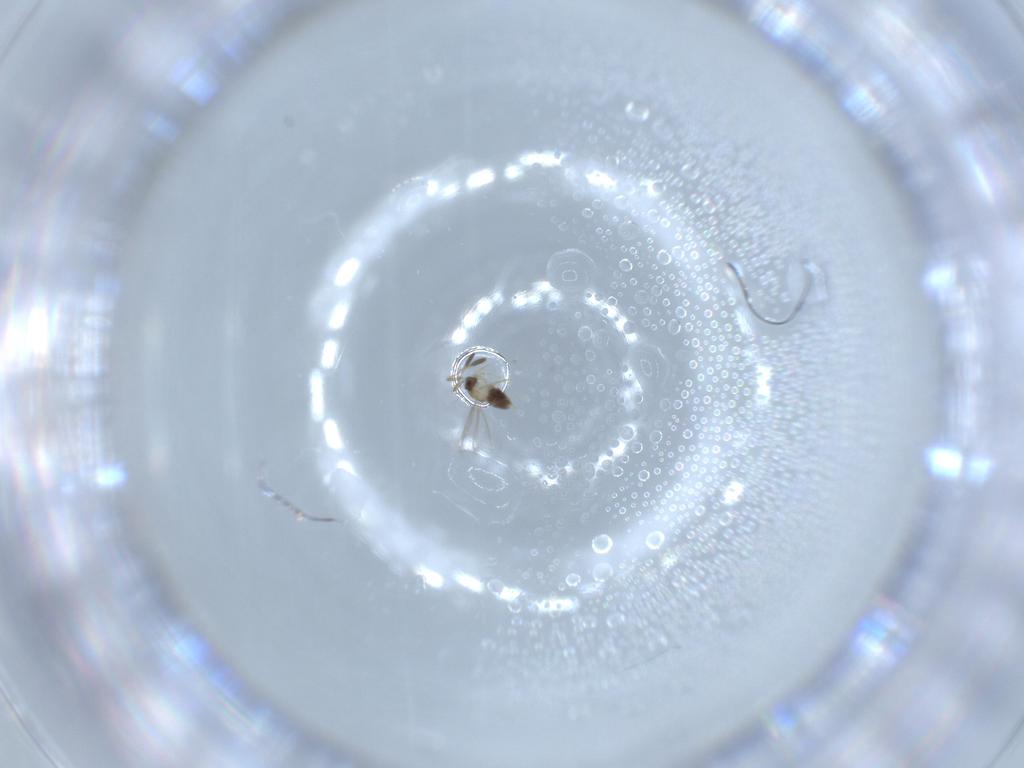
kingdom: Animalia
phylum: Arthropoda
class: Insecta
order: Hymenoptera
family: Mymaridae
